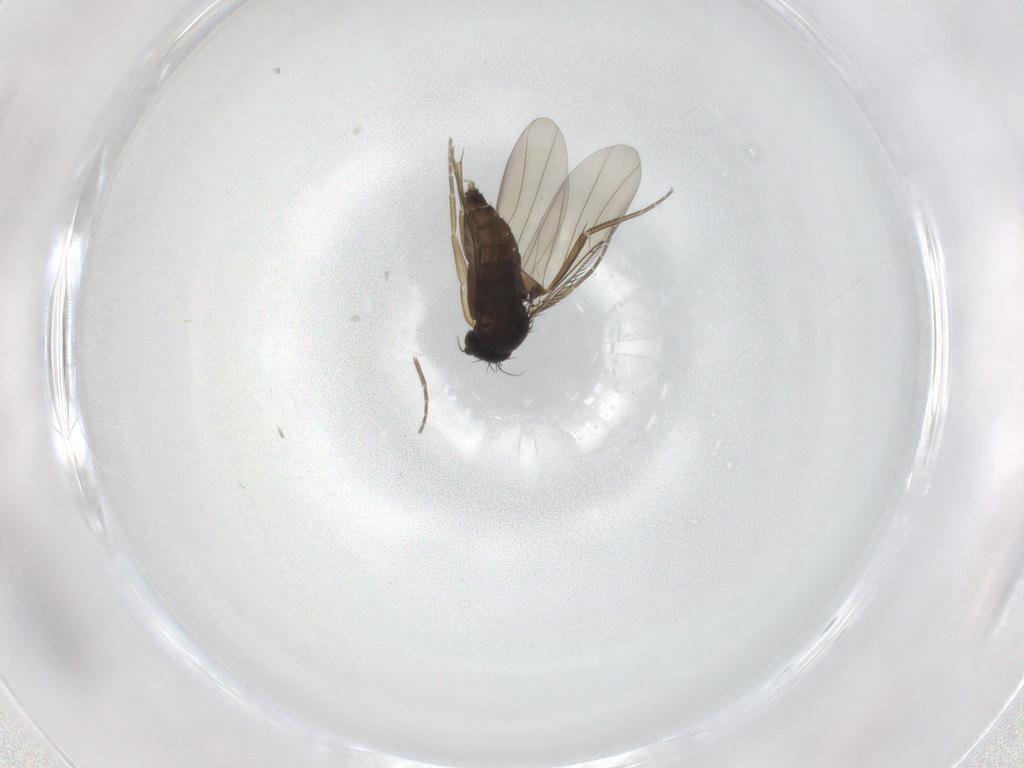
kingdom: Animalia
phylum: Arthropoda
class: Insecta
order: Diptera
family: Phoridae
